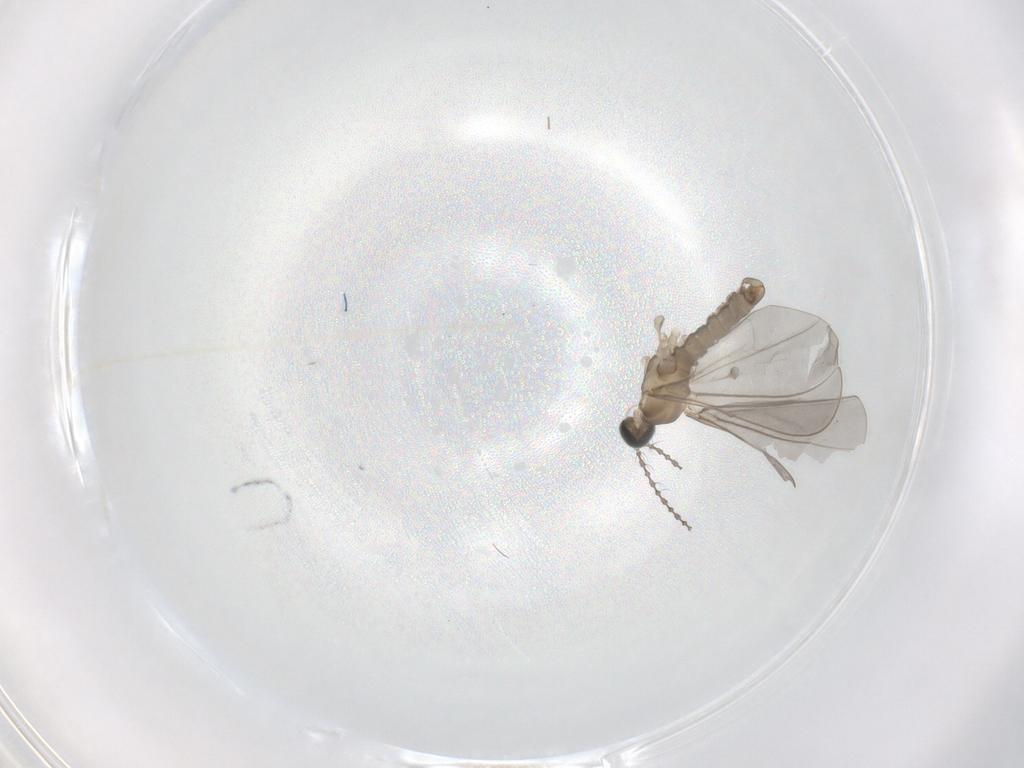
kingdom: Animalia
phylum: Arthropoda
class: Insecta
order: Diptera
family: Cecidomyiidae
